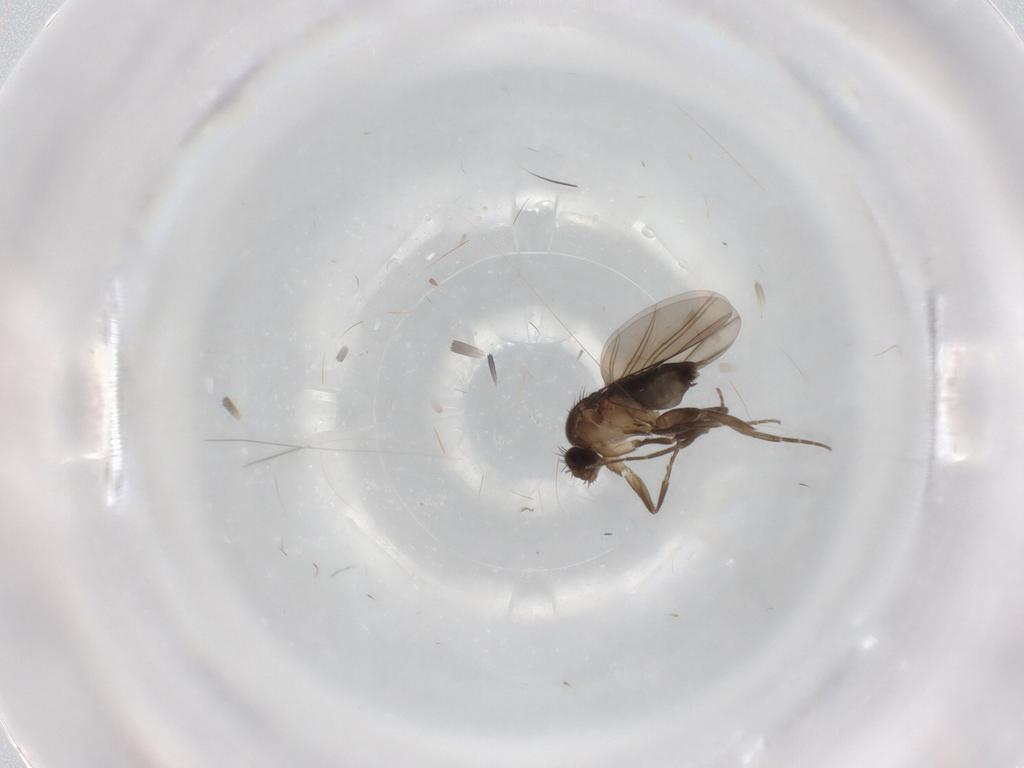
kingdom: Animalia
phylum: Arthropoda
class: Insecta
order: Diptera
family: Phoridae
